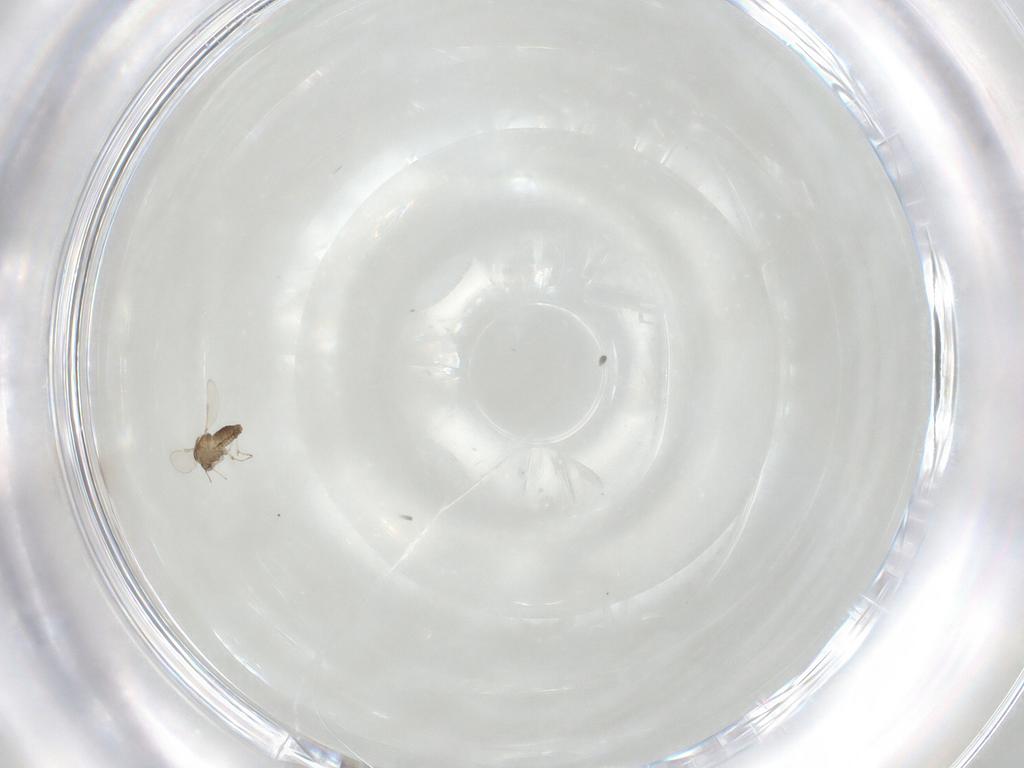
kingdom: Animalia
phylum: Arthropoda
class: Insecta
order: Diptera
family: Chironomidae
